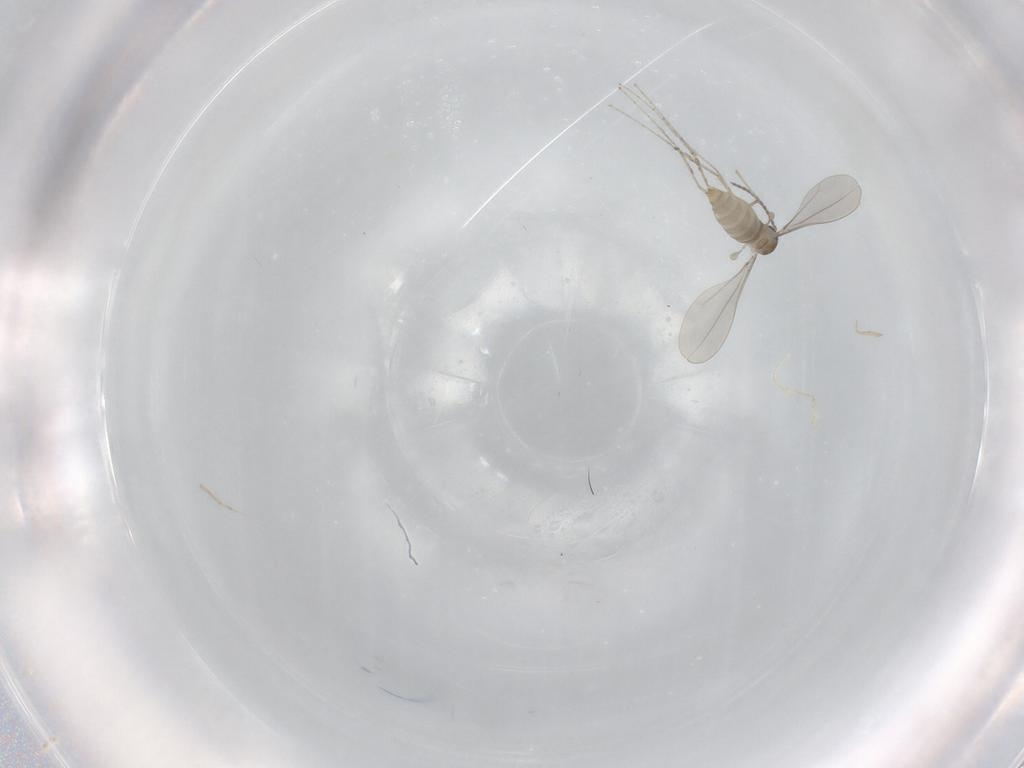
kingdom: Animalia
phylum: Arthropoda
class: Insecta
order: Diptera
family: Cecidomyiidae
